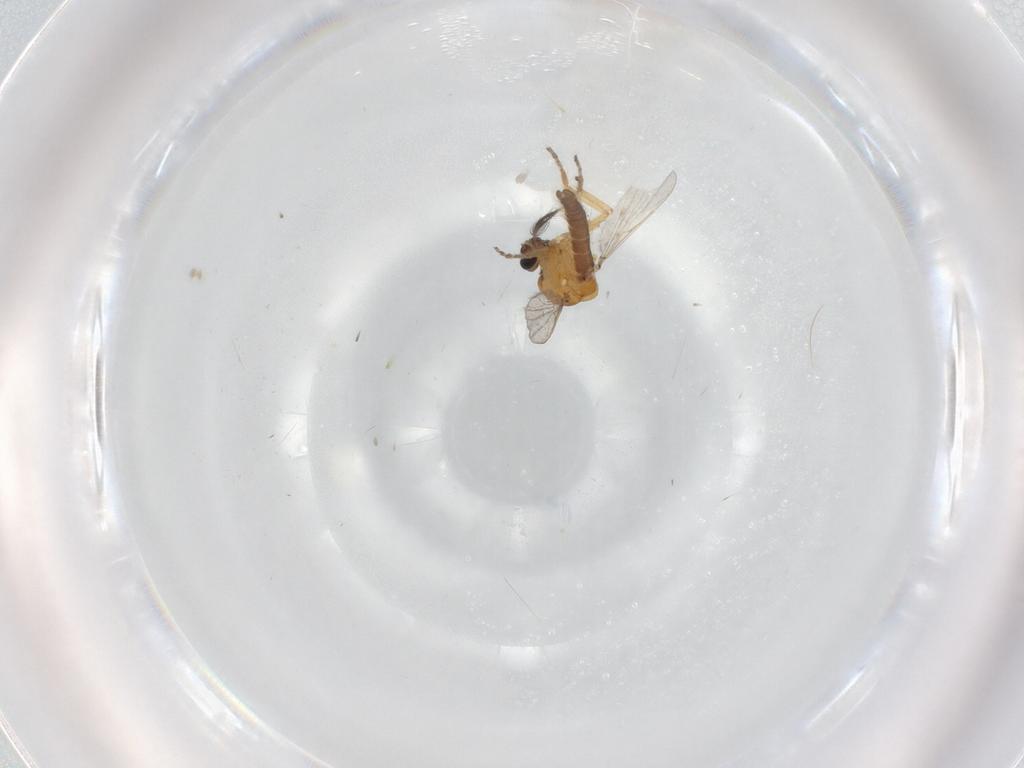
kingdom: Animalia
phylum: Arthropoda
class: Insecta
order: Diptera
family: Ceratopogonidae
